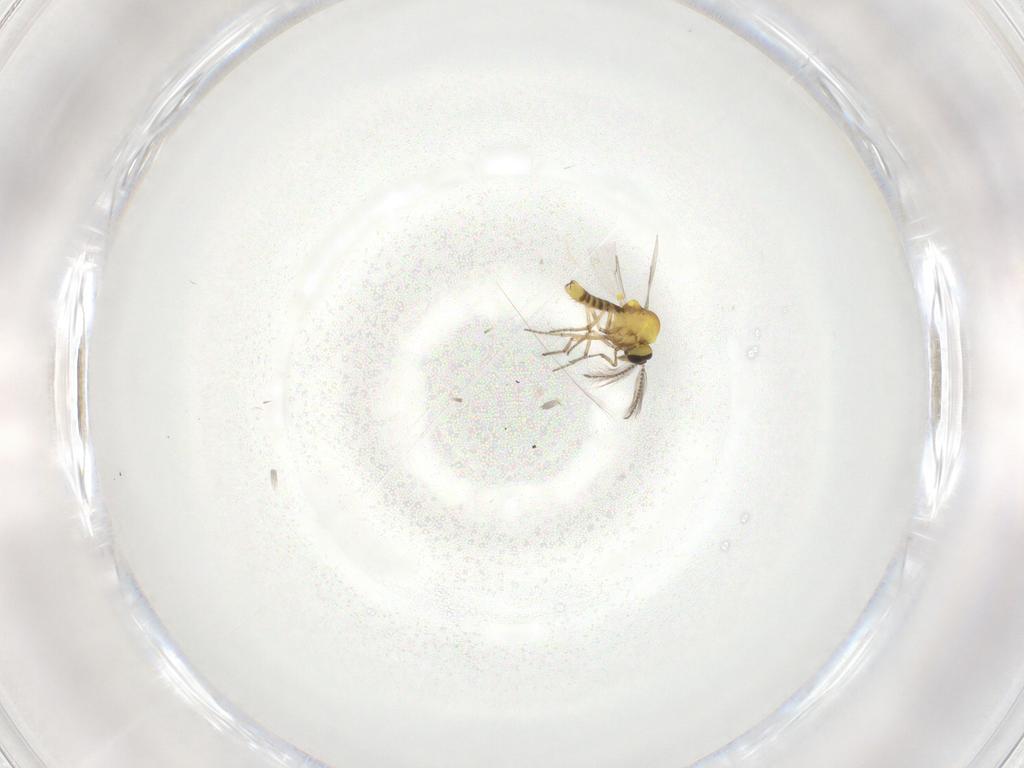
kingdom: Animalia
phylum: Arthropoda
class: Insecta
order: Diptera
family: Ceratopogonidae
